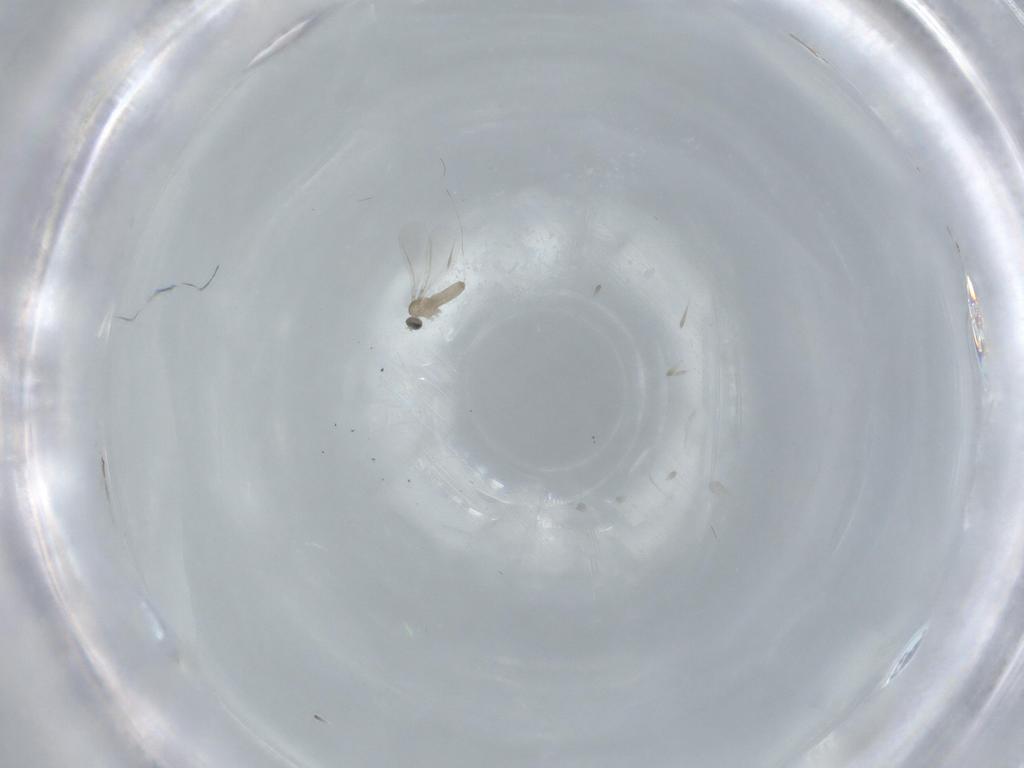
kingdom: Animalia
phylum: Arthropoda
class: Insecta
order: Diptera
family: Cecidomyiidae
